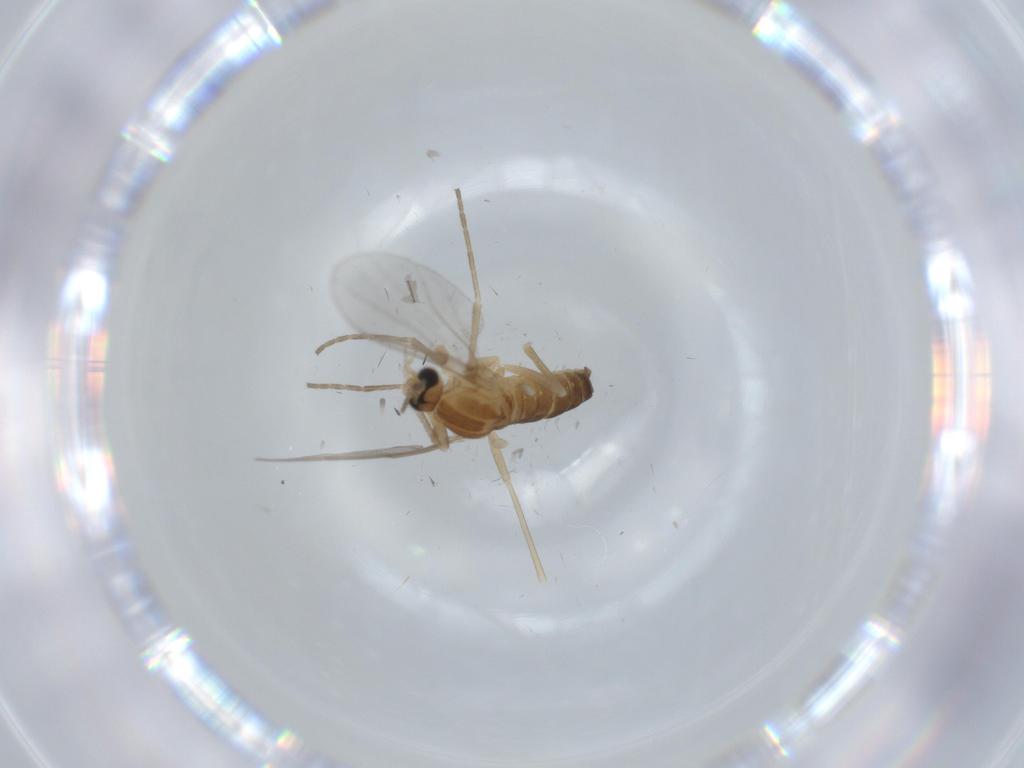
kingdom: Animalia
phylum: Arthropoda
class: Insecta
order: Diptera
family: Cecidomyiidae
